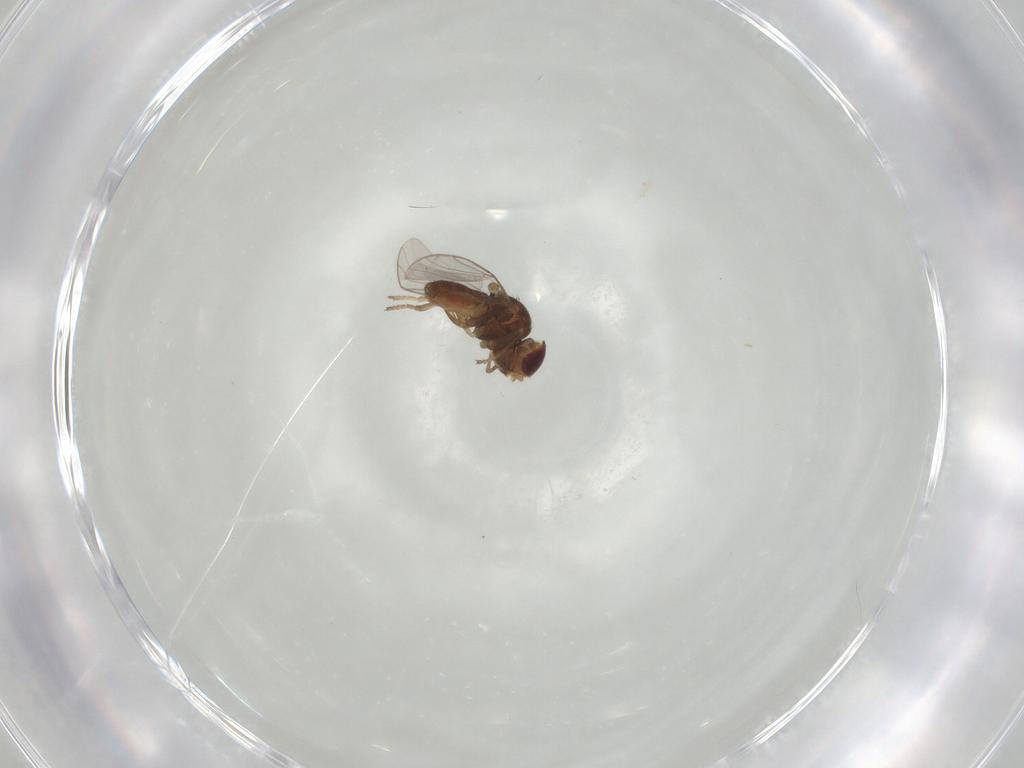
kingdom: Animalia
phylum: Arthropoda
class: Insecta
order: Diptera
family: Chloropidae
